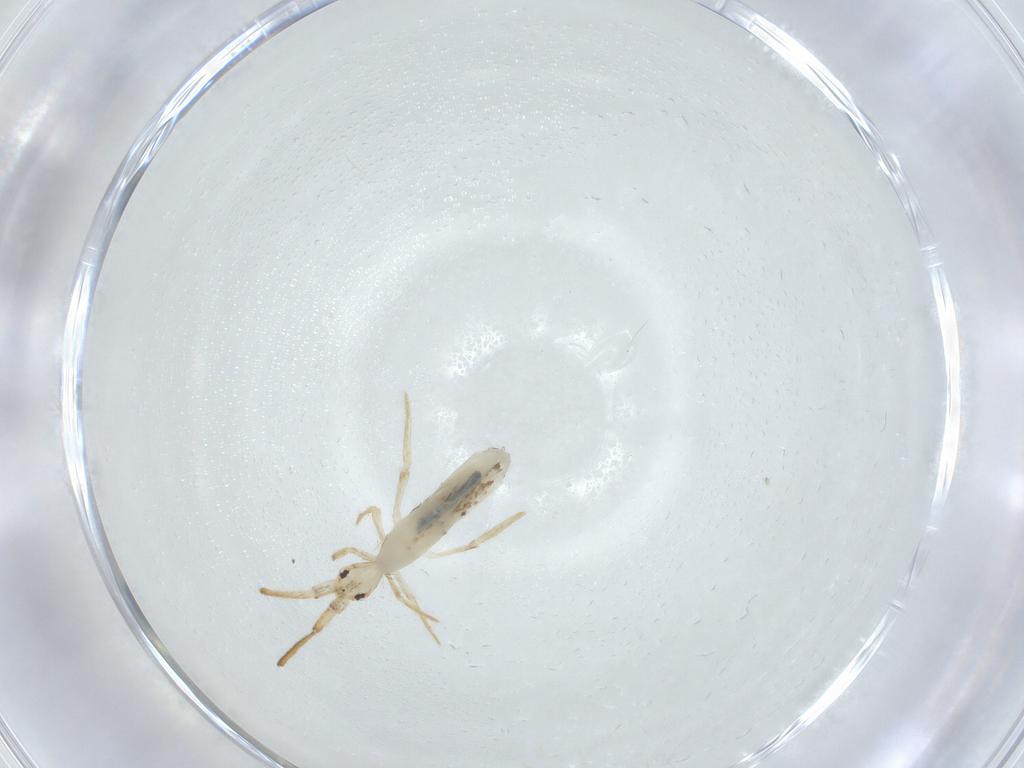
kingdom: Animalia
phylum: Arthropoda
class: Collembola
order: Entomobryomorpha
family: Entomobryidae
